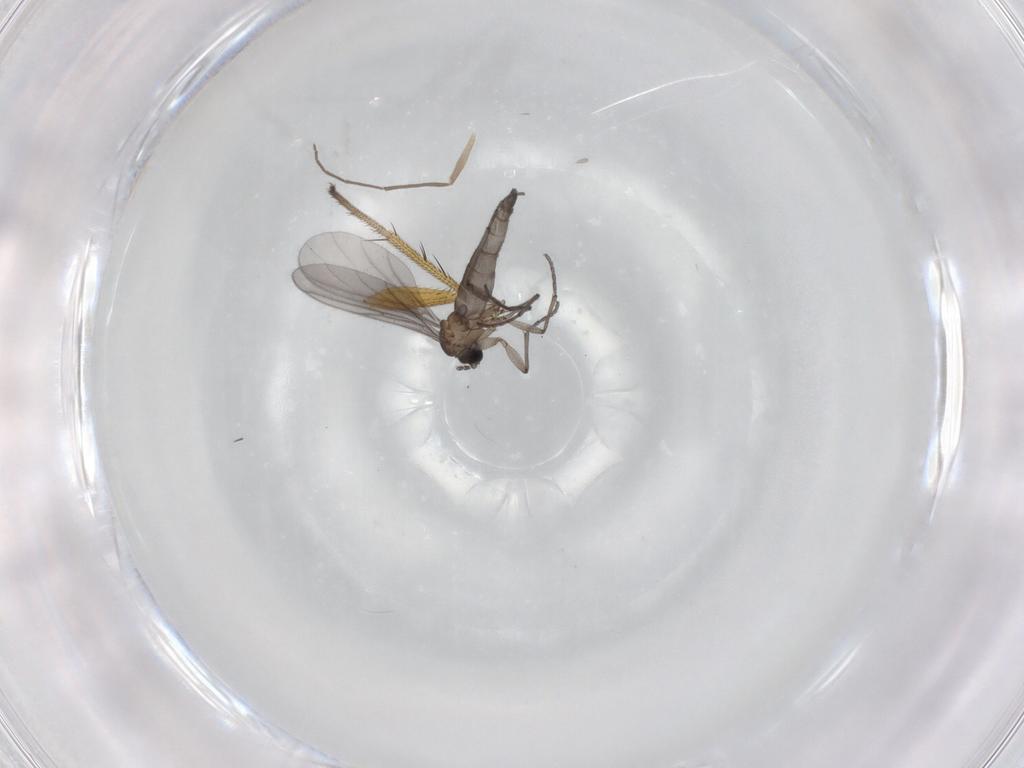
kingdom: Animalia
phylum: Arthropoda
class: Insecta
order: Diptera
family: Sciaridae
